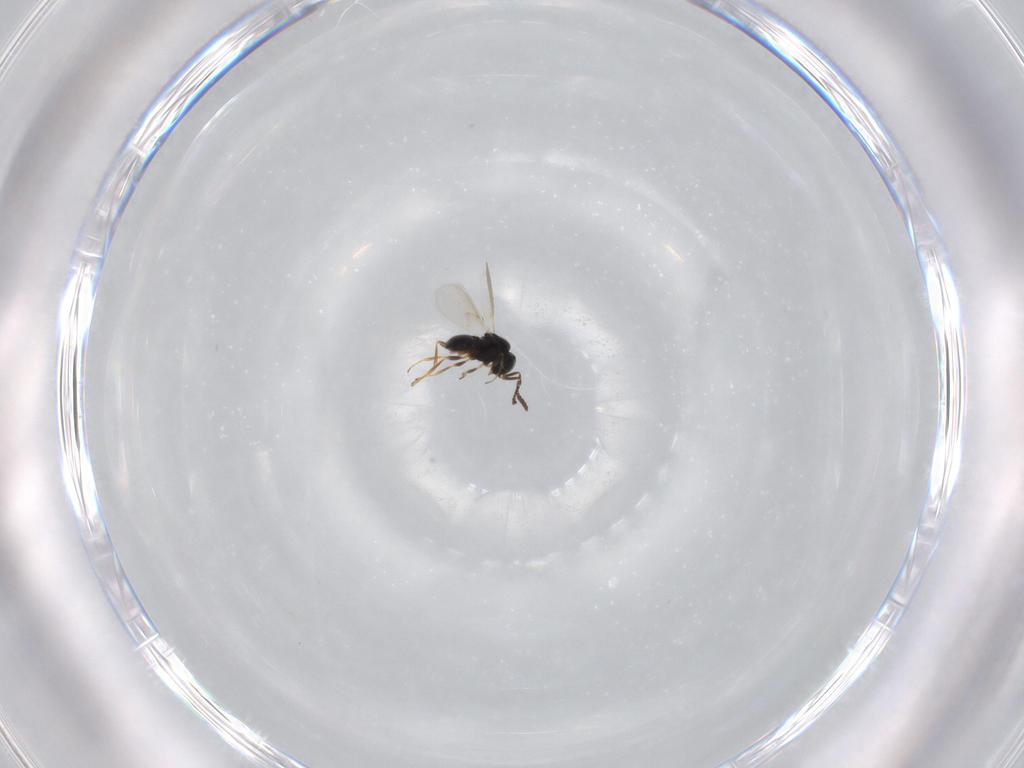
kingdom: Animalia
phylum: Arthropoda
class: Insecta
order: Hymenoptera
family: Scelionidae
